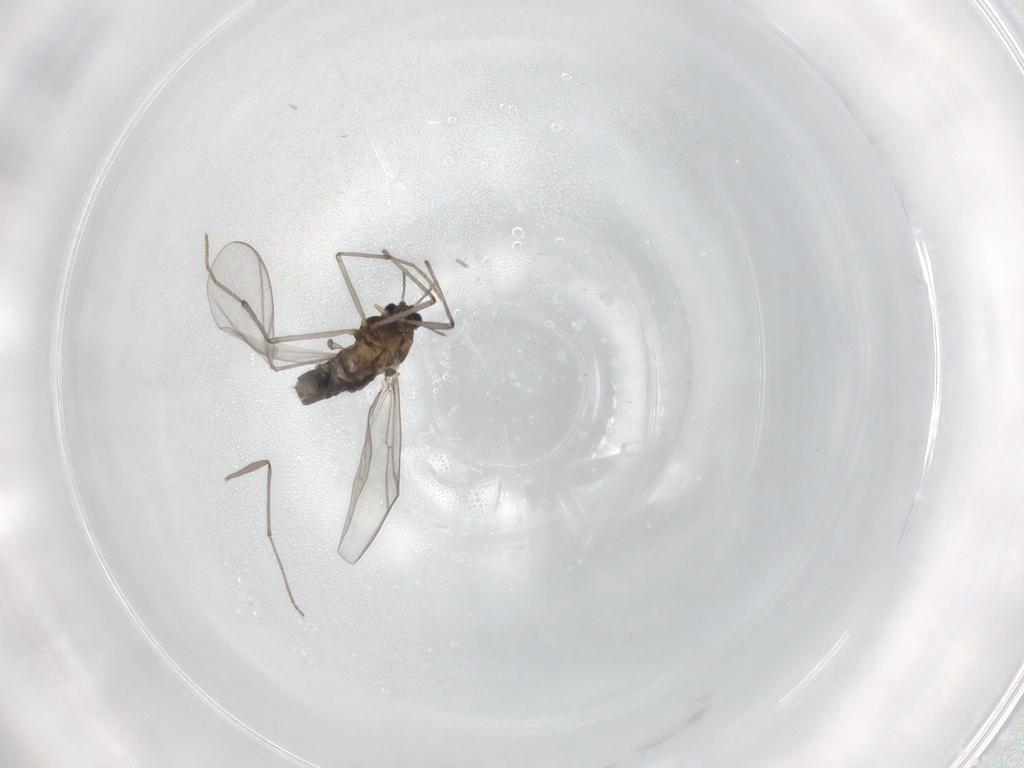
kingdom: Animalia
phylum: Arthropoda
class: Insecta
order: Diptera
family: Chironomidae
